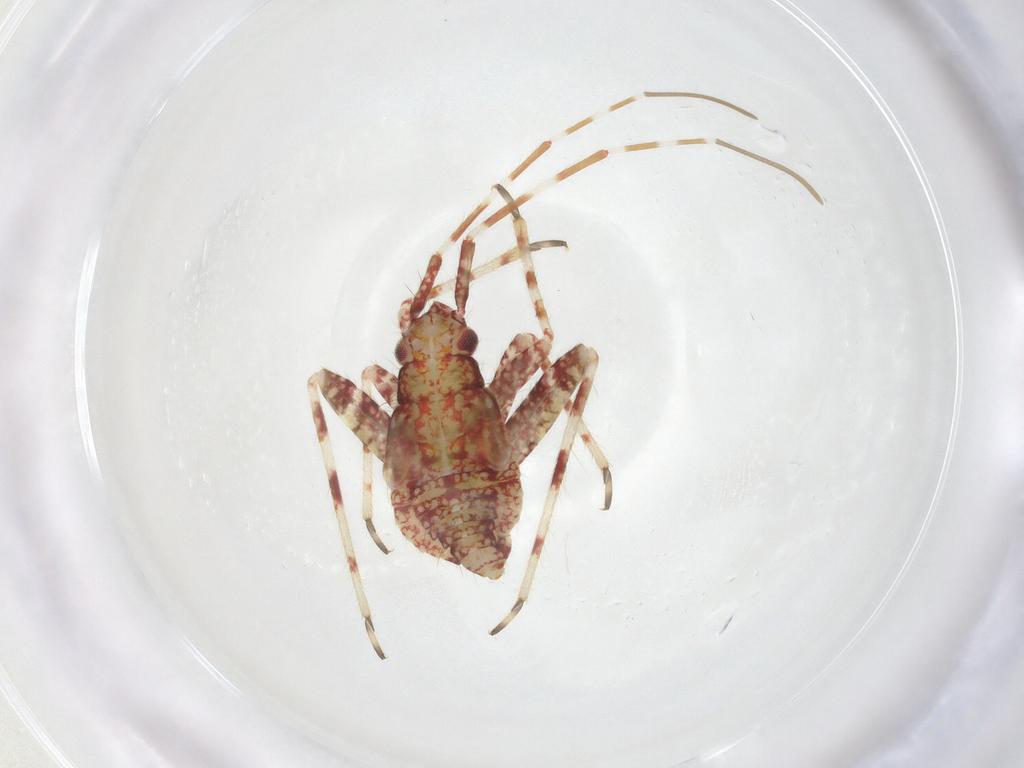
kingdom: Animalia
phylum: Arthropoda
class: Insecta
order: Hemiptera
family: Miridae
